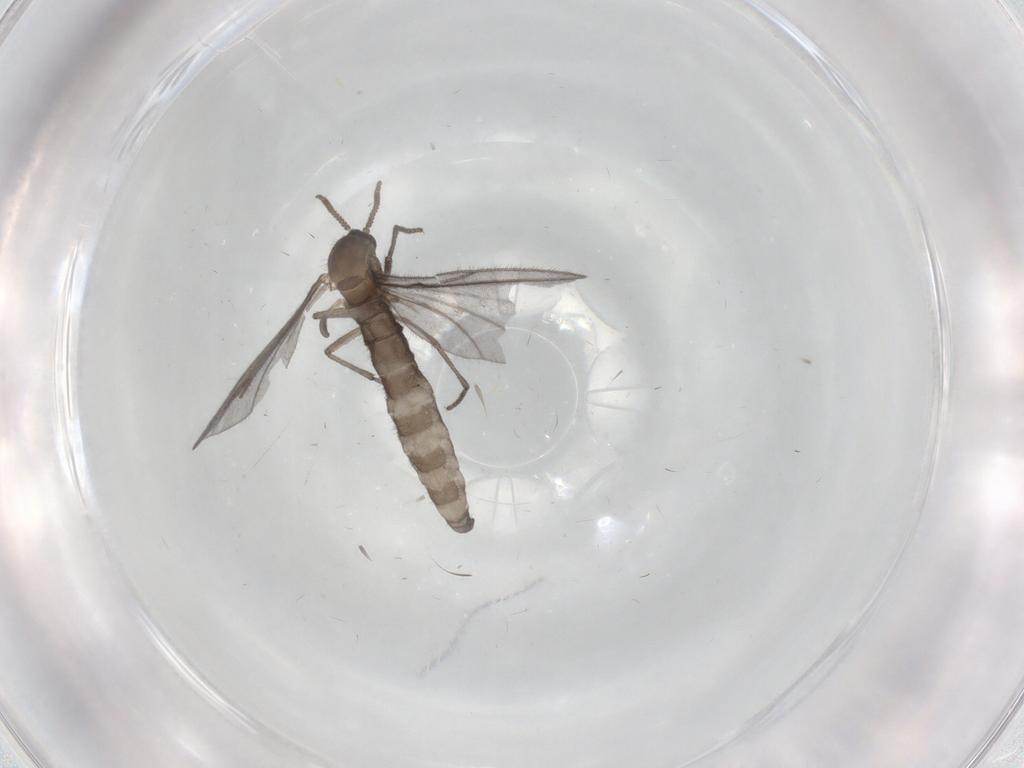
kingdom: Animalia
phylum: Arthropoda
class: Insecta
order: Diptera
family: Sciaridae
